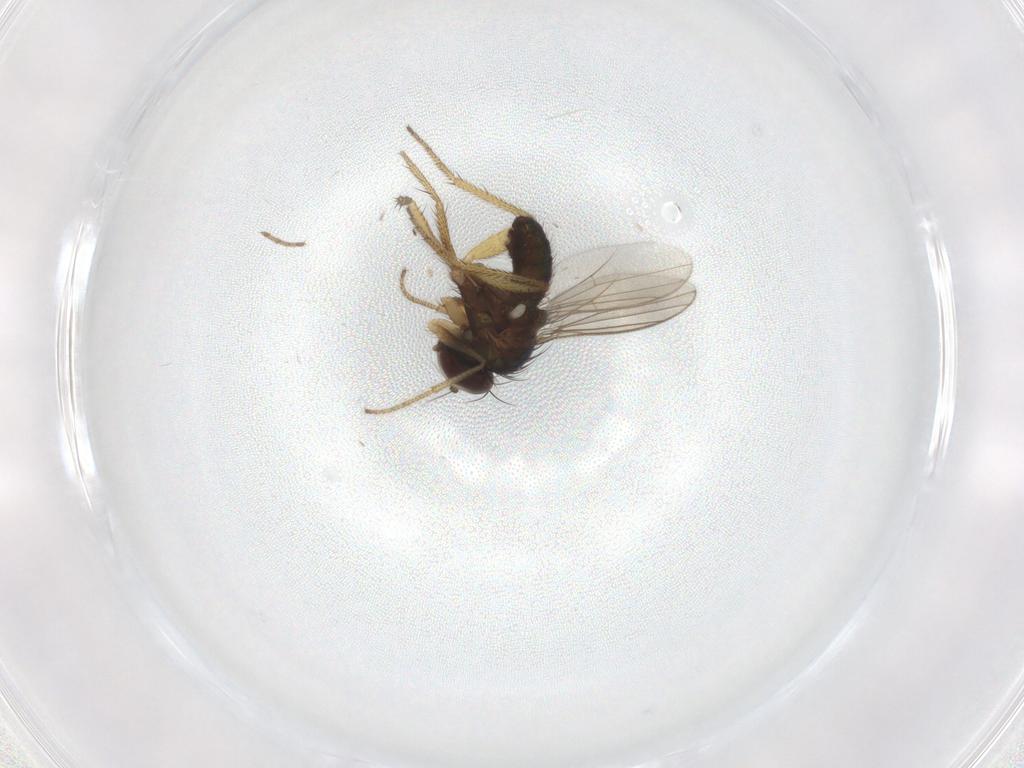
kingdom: Animalia
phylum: Arthropoda
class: Insecta
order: Diptera
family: Dolichopodidae
